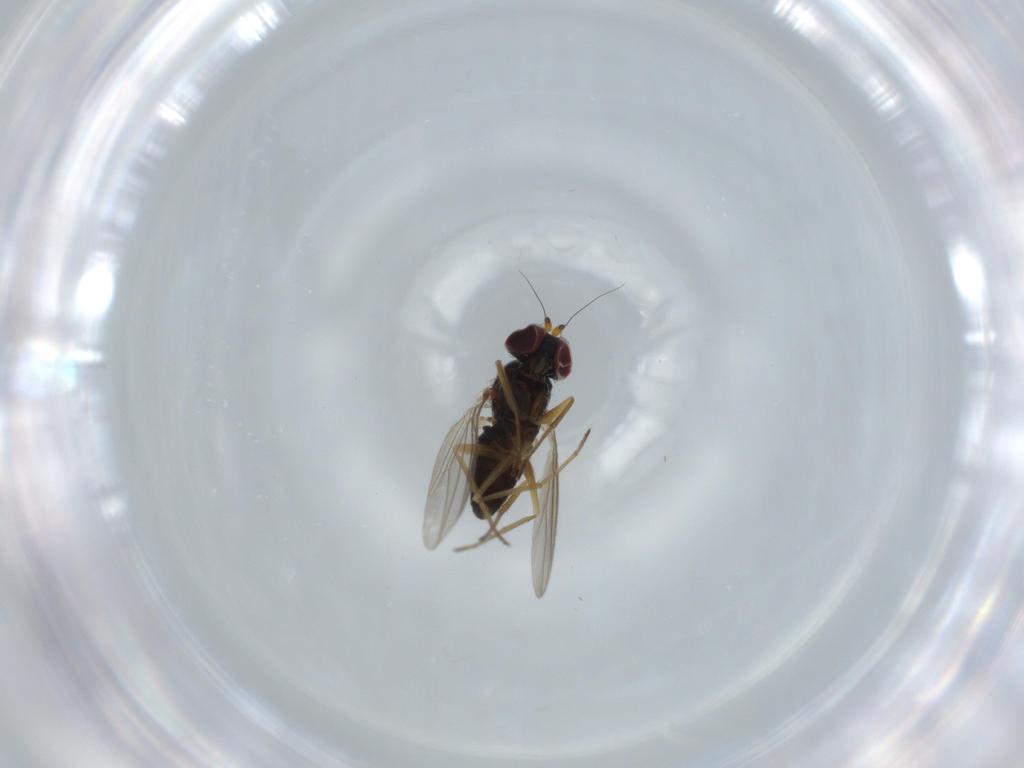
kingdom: Animalia
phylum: Arthropoda
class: Insecta
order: Diptera
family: Dolichopodidae
